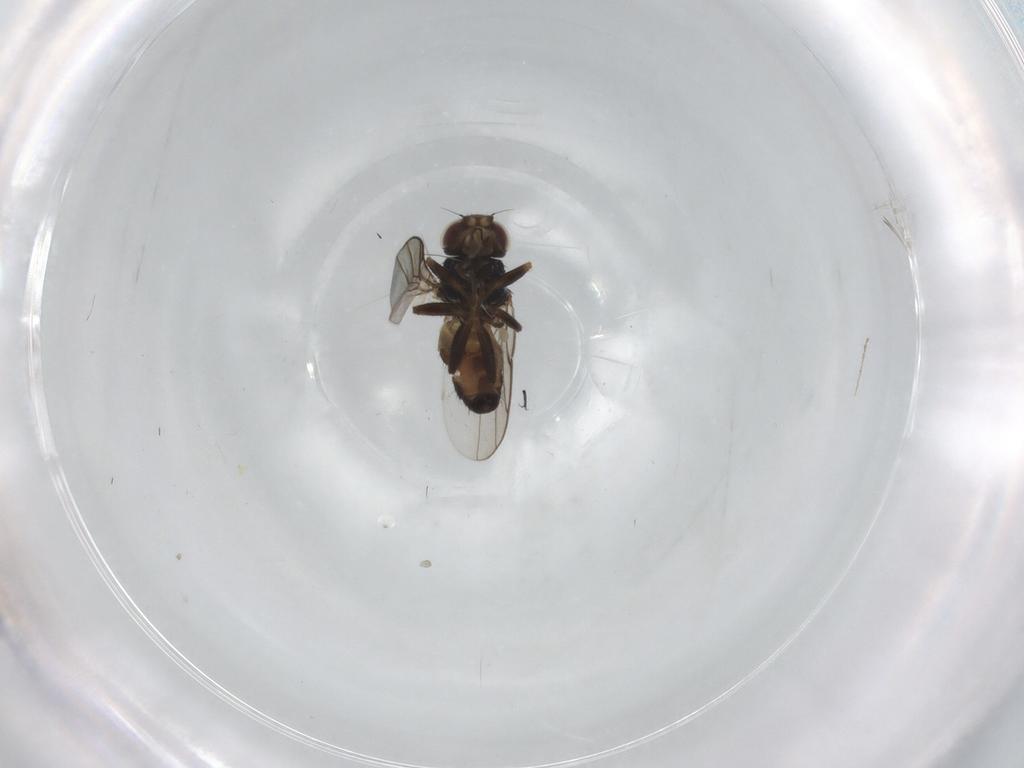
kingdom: Animalia
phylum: Arthropoda
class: Insecta
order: Diptera
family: Chloropidae
